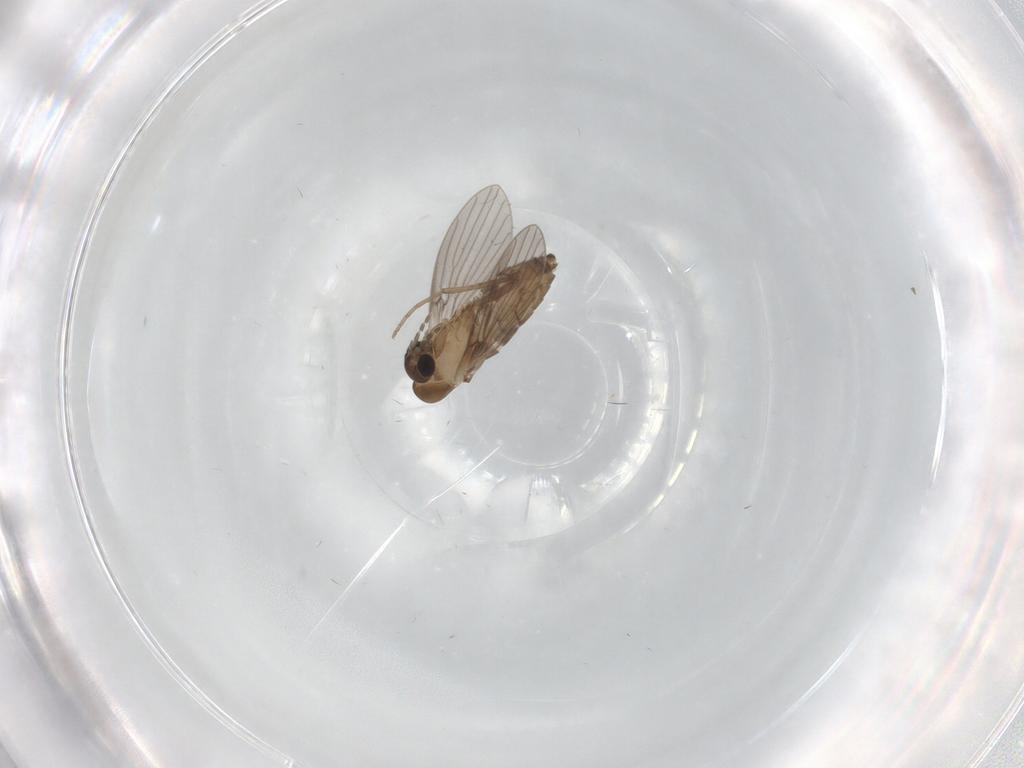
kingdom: Animalia
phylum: Arthropoda
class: Insecta
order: Diptera
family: Psychodidae
